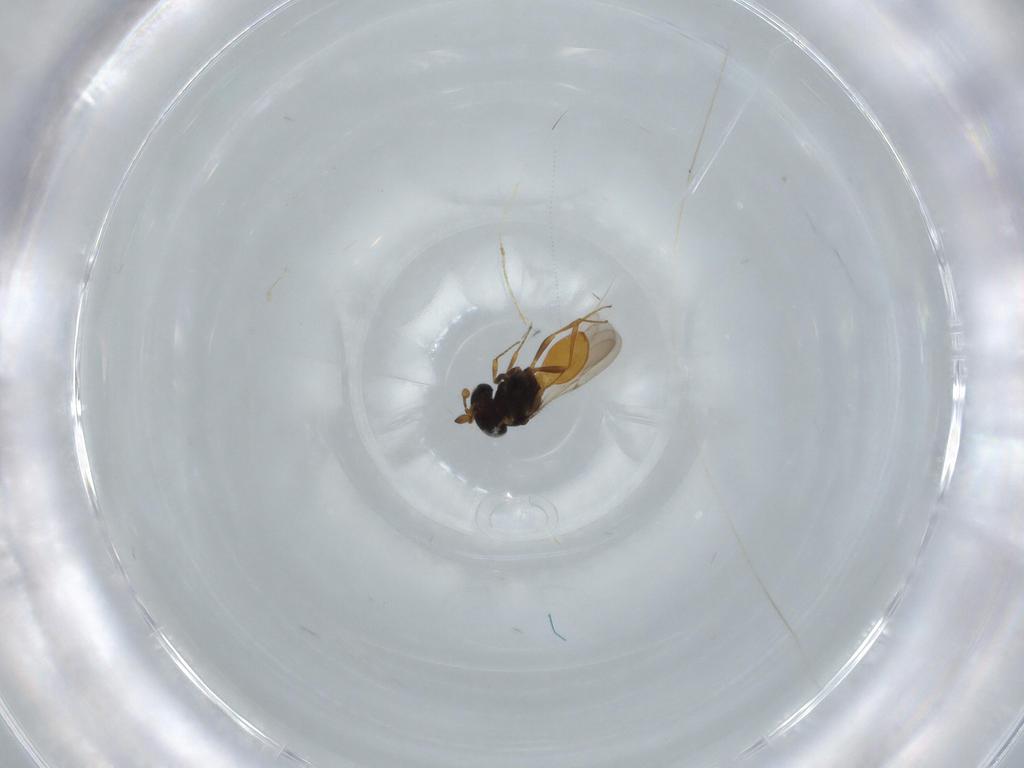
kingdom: Animalia
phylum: Arthropoda
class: Insecta
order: Hymenoptera
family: Scelionidae
